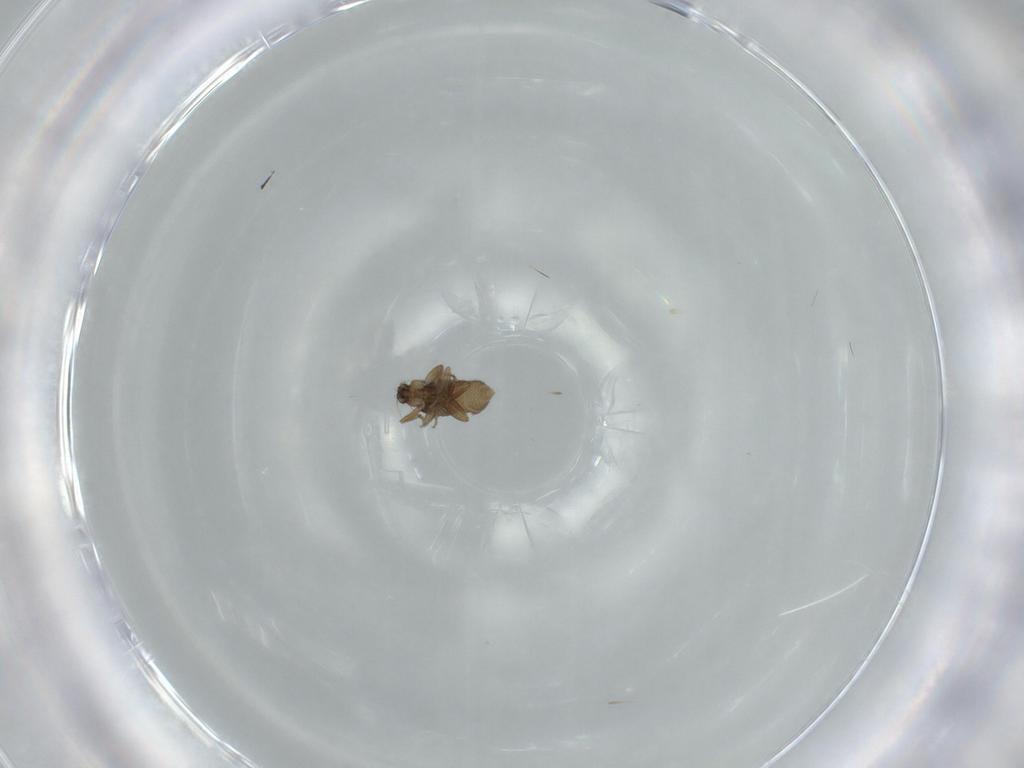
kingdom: Animalia
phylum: Arthropoda
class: Insecta
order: Diptera
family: Phoridae
